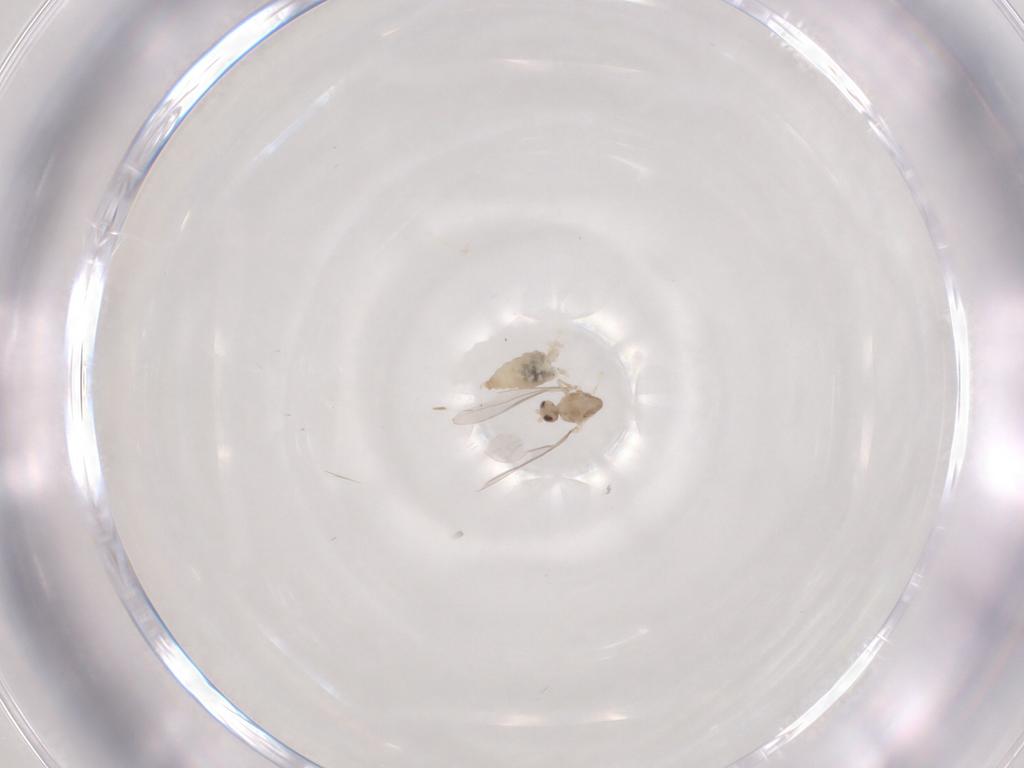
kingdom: Animalia
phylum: Arthropoda
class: Insecta
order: Diptera
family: Cecidomyiidae
